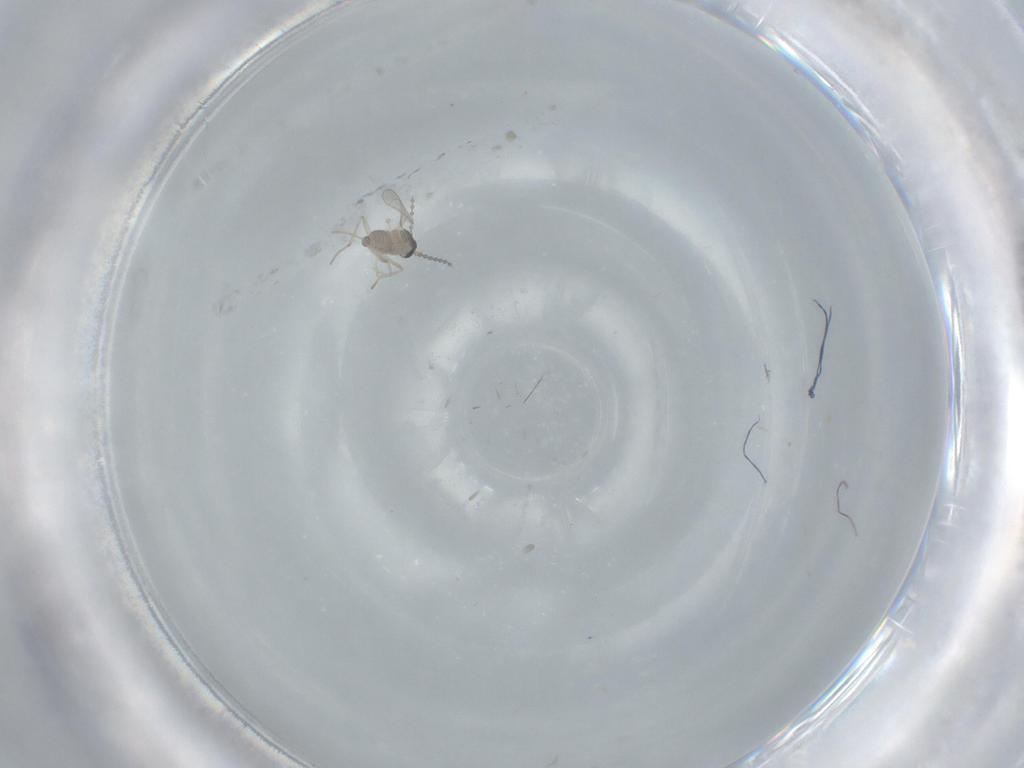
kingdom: Animalia
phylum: Arthropoda
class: Insecta
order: Diptera
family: Cecidomyiidae
